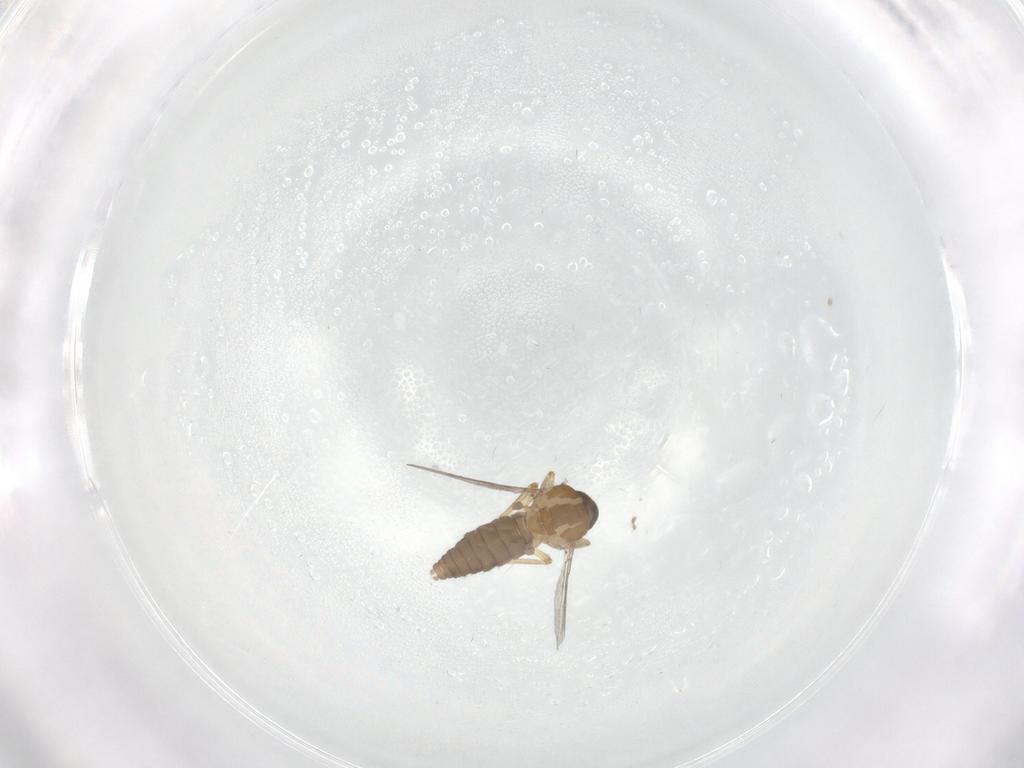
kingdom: Animalia
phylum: Arthropoda
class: Insecta
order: Diptera
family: Ceratopogonidae
